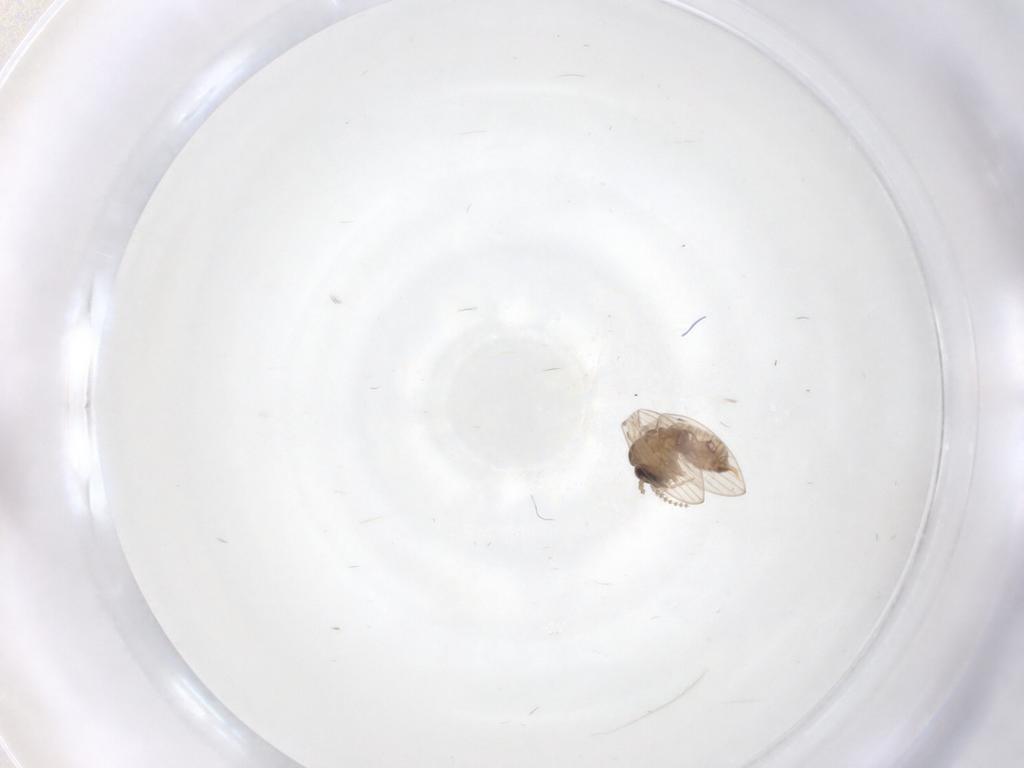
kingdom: Animalia
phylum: Arthropoda
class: Insecta
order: Diptera
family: Psychodidae
